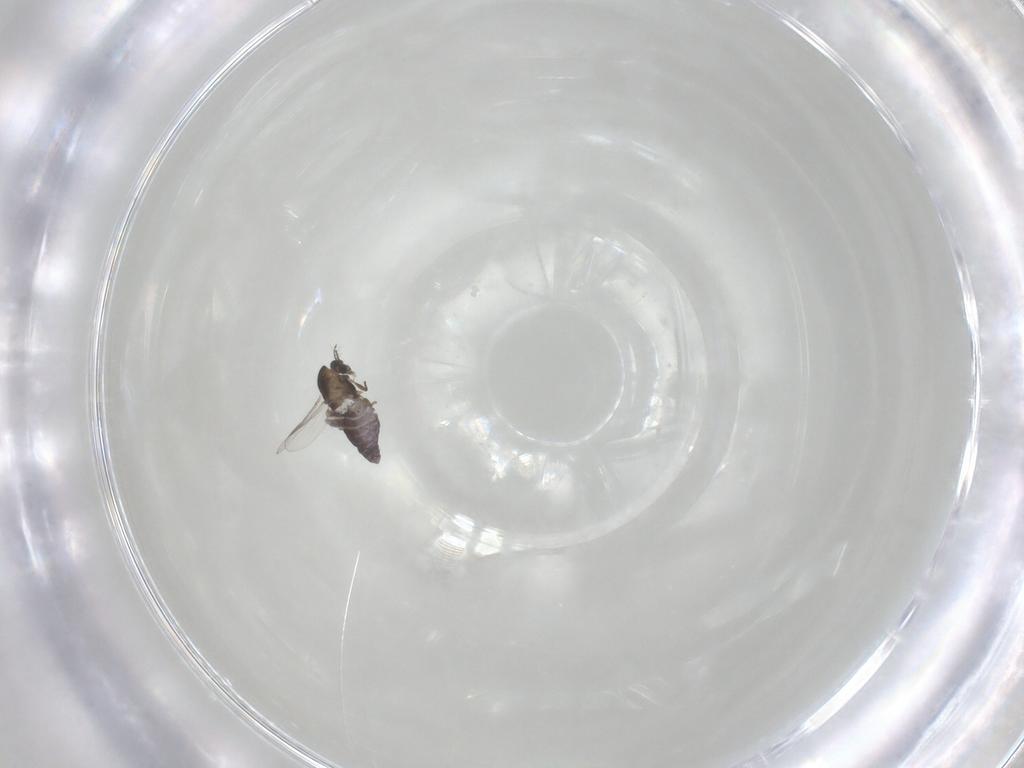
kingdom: Animalia
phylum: Arthropoda
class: Insecta
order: Diptera
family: Chironomidae
